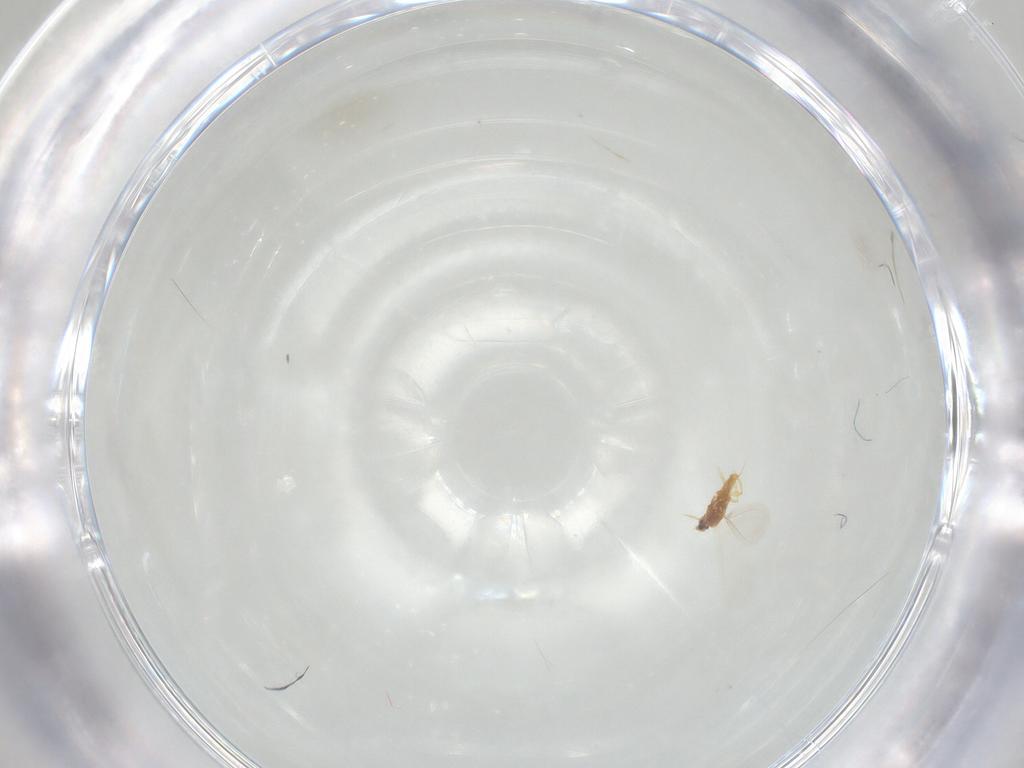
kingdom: Animalia
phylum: Arthropoda
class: Insecta
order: Hemiptera
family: Diaspididae
